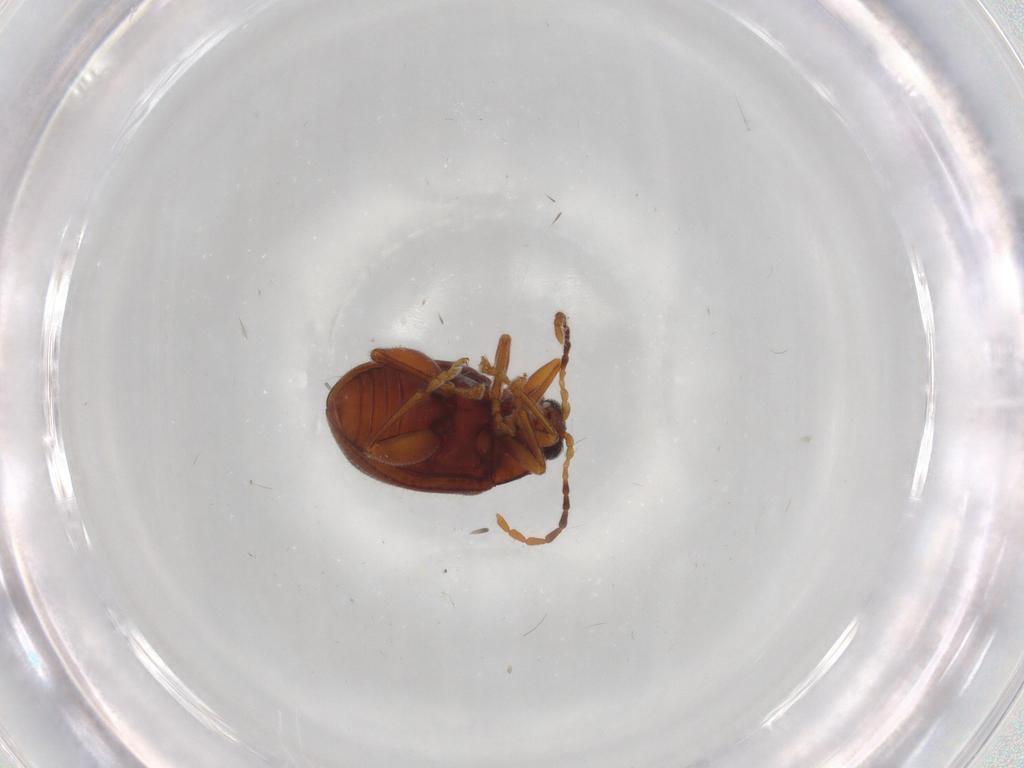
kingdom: Animalia
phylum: Arthropoda
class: Insecta
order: Coleoptera
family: Chrysomelidae
